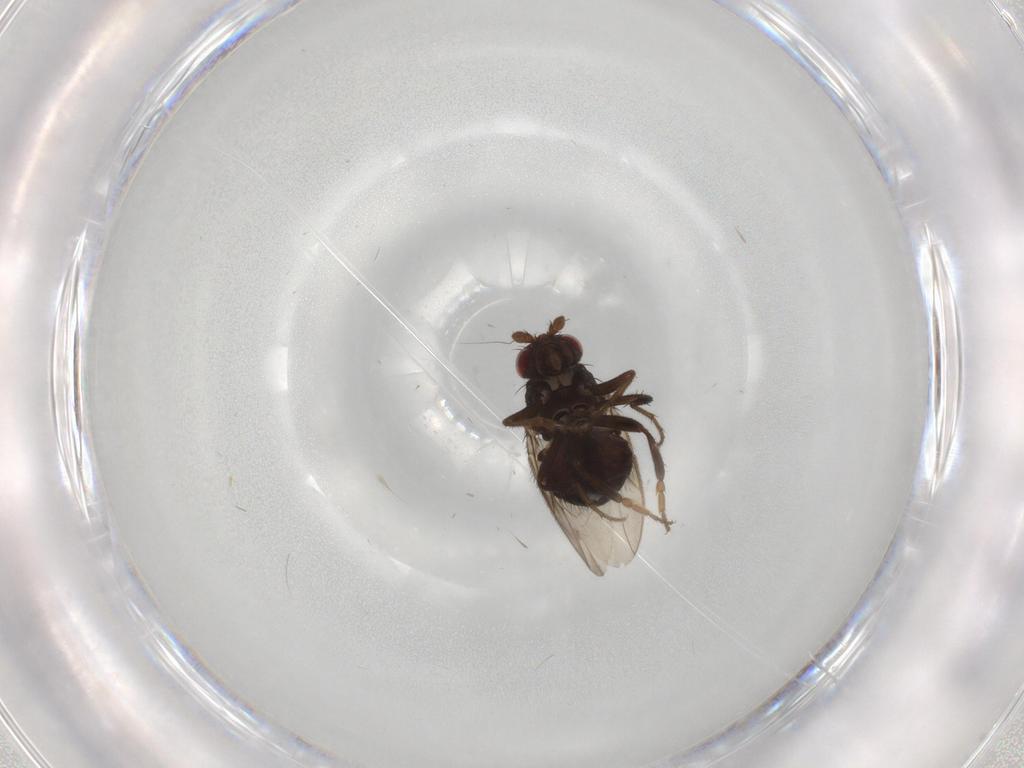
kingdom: Animalia
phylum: Arthropoda
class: Insecta
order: Diptera
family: Sphaeroceridae
